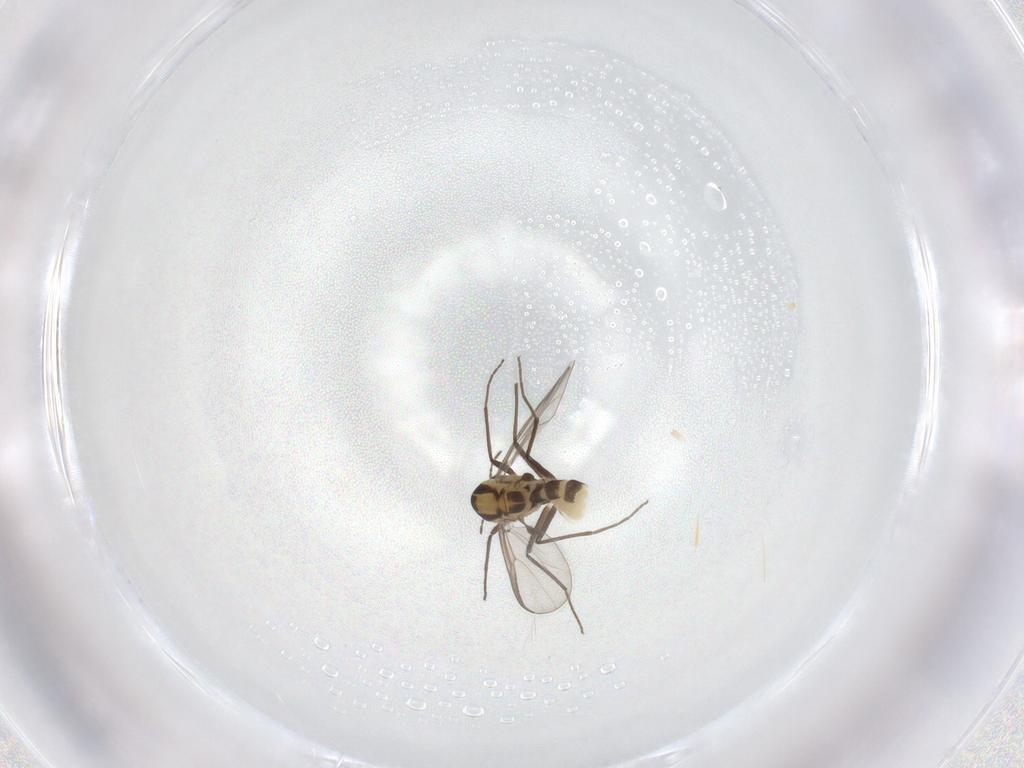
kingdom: Animalia
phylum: Arthropoda
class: Insecta
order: Diptera
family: Chironomidae
